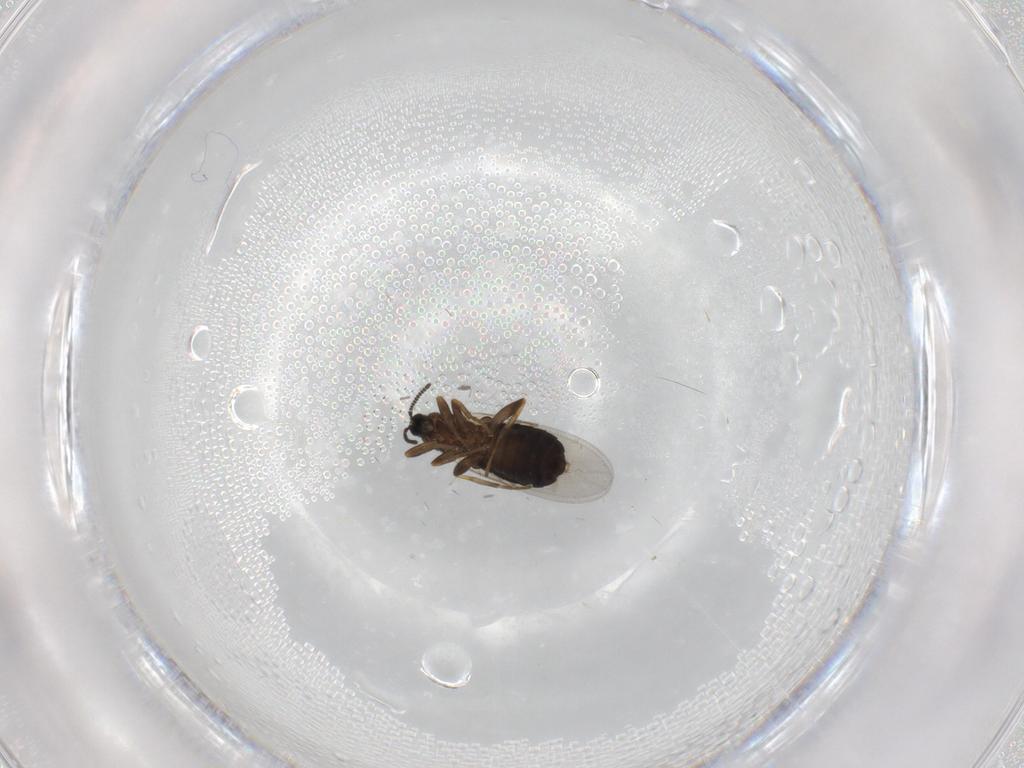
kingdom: Animalia
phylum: Arthropoda
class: Insecta
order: Diptera
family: Scatopsidae
